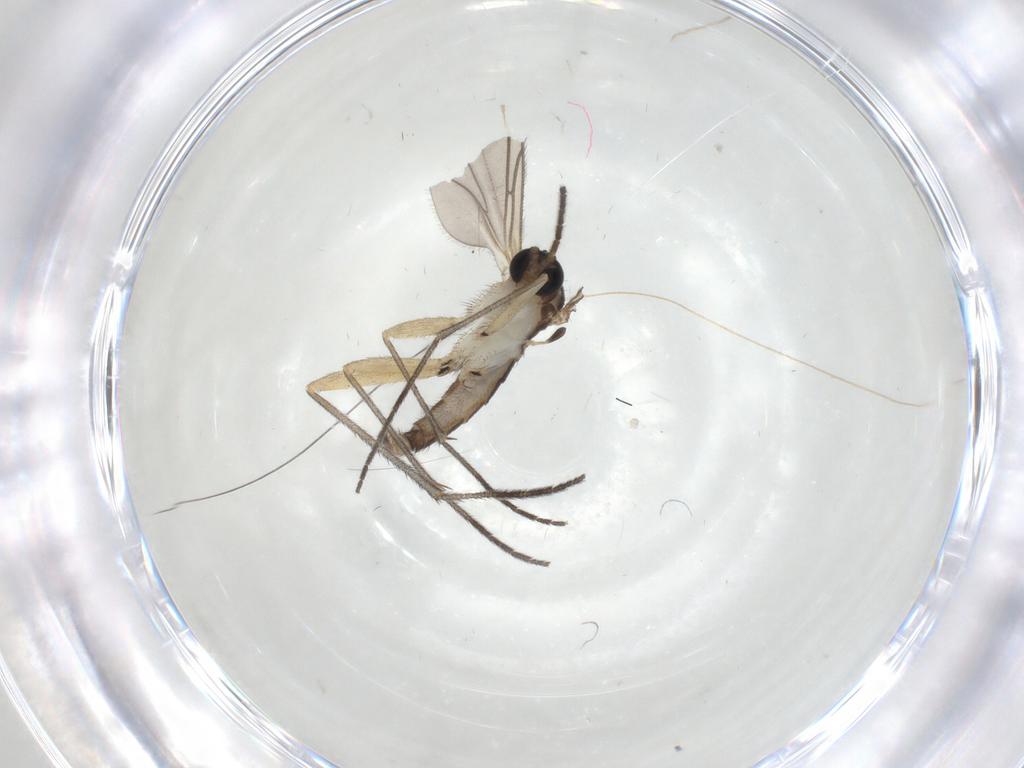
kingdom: Animalia
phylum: Arthropoda
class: Insecta
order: Diptera
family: Sciaridae
